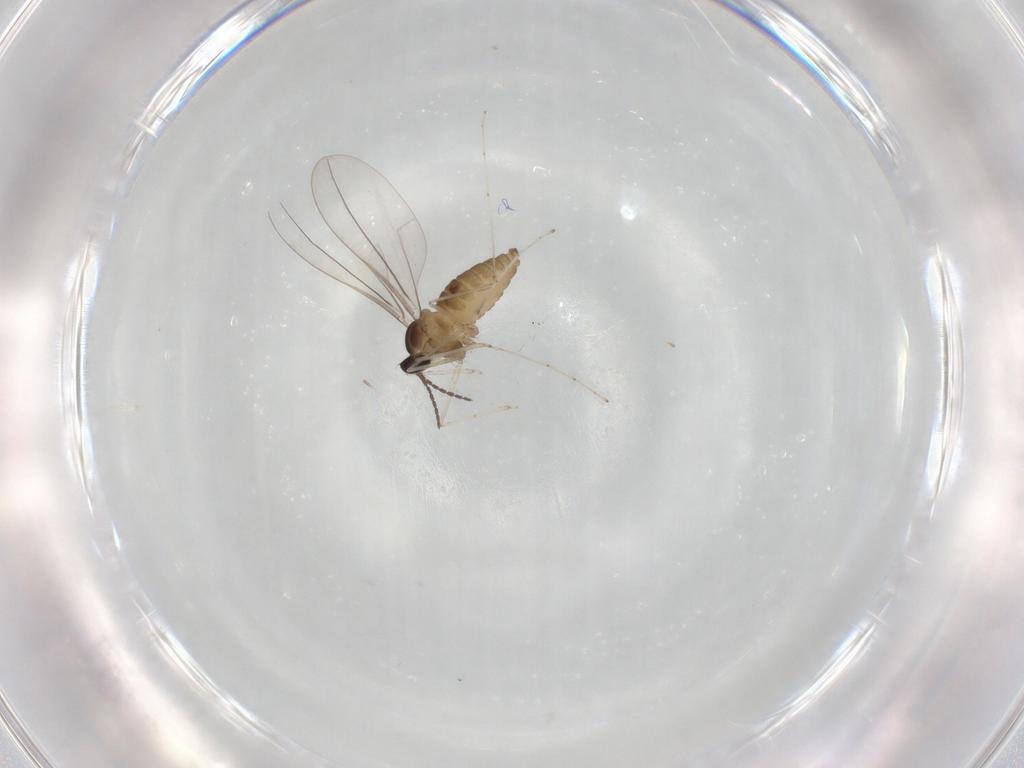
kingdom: Animalia
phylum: Arthropoda
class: Insecta
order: Diptera
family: Cecidomyiidae
